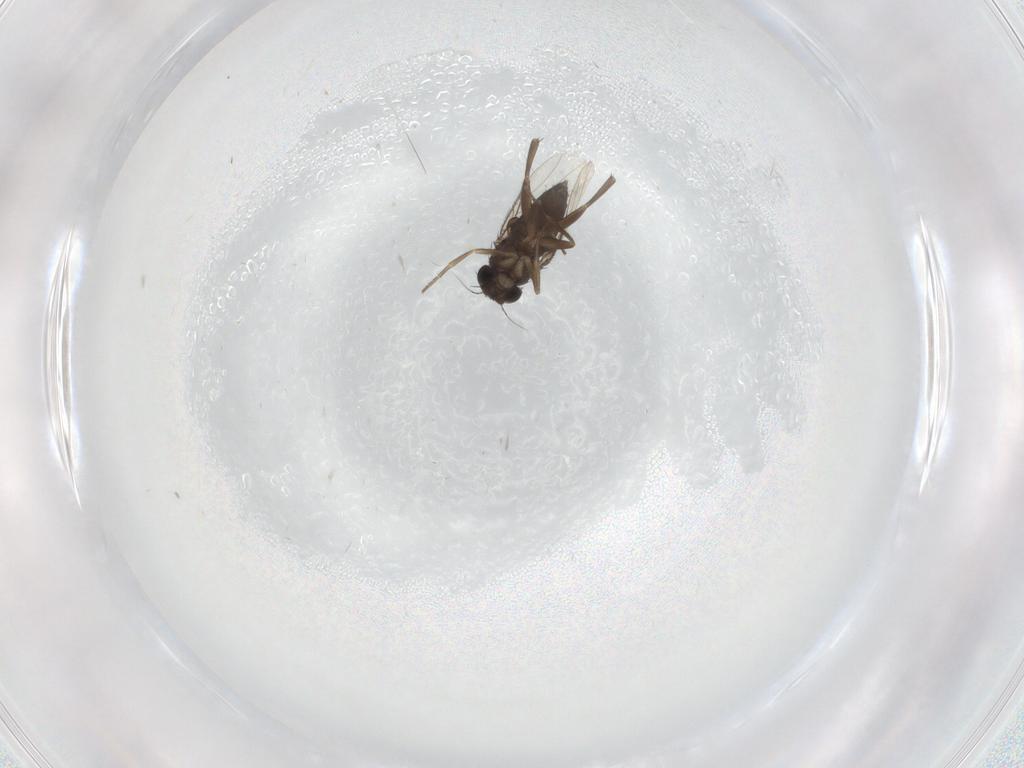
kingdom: Animalia
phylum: Arthropoda
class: Insecta
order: Diptera
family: Phoridae
